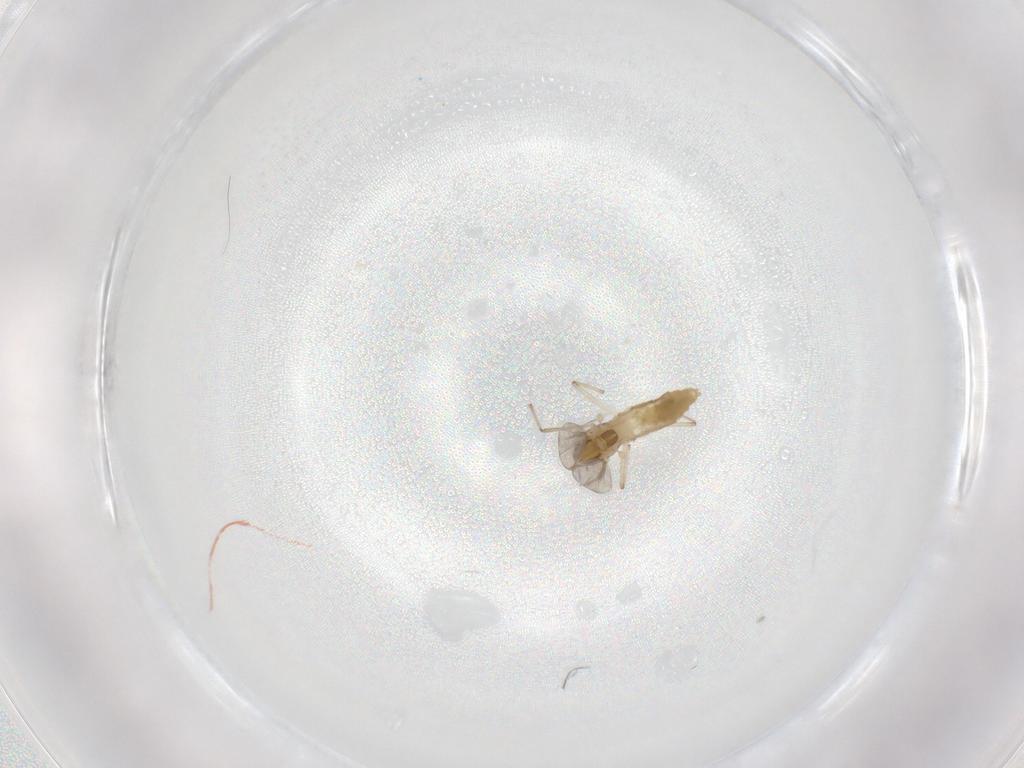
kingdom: Animalia
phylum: Arthropoda
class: Insecta
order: Diptera
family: Chironomidae
